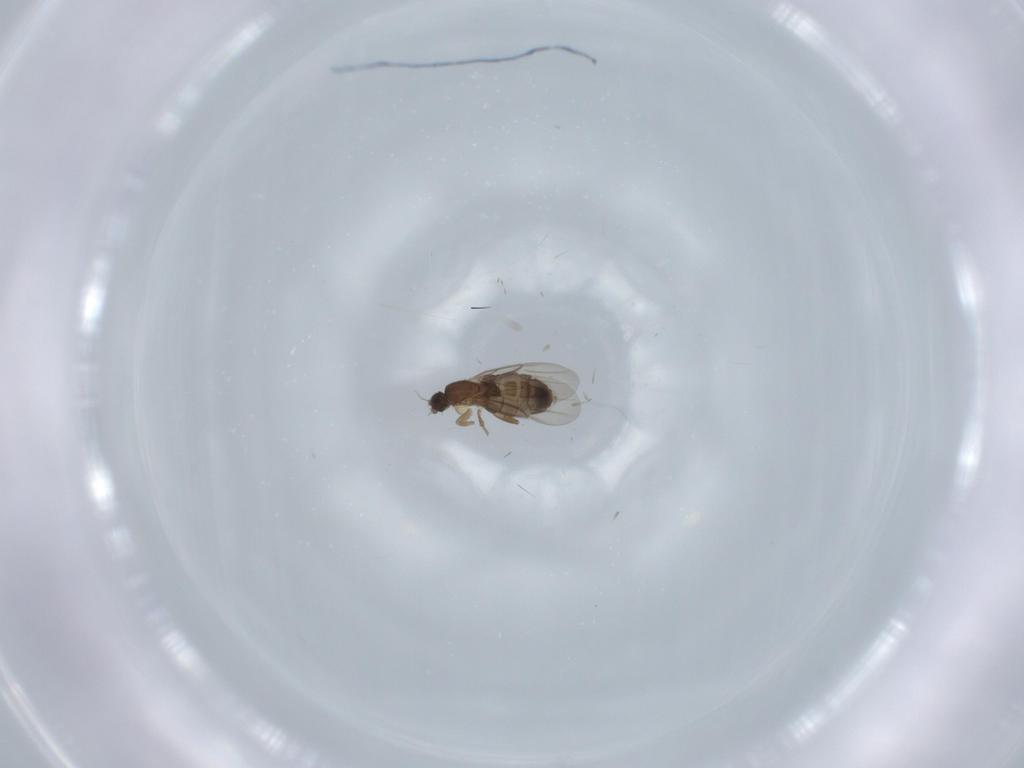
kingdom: Animalia
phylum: Arthropoda
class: Insecta
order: Diptera
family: Phoridae
